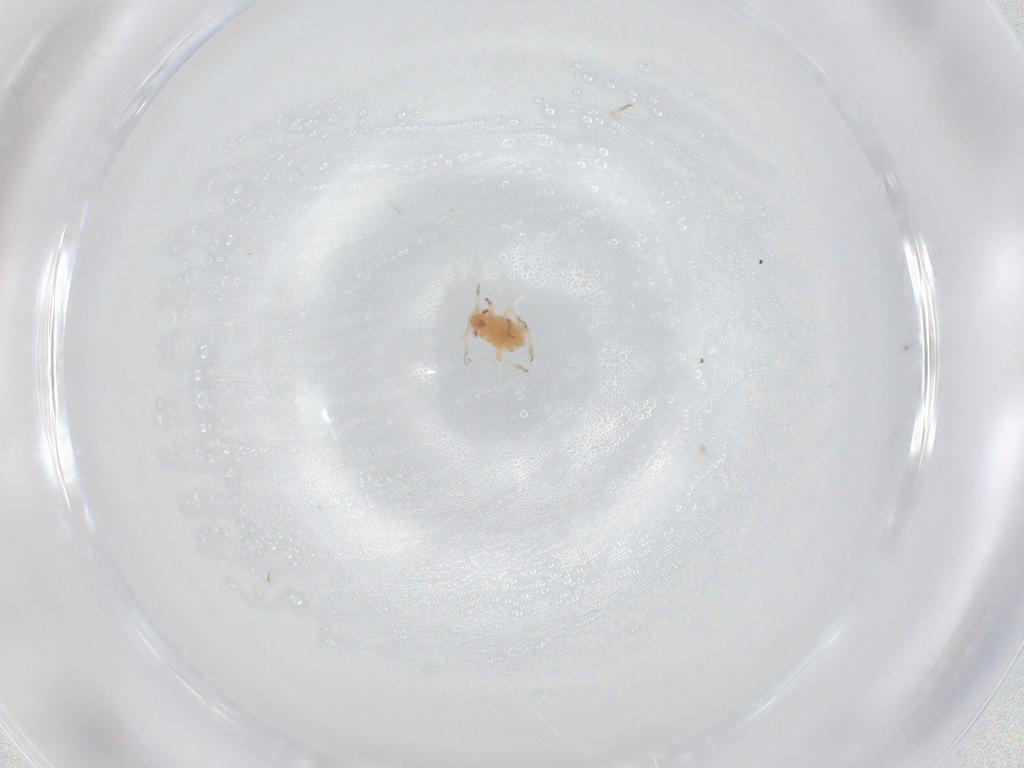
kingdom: Animalia
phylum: Arthropoda
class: Insecta
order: Hemiptera
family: Aphididae
